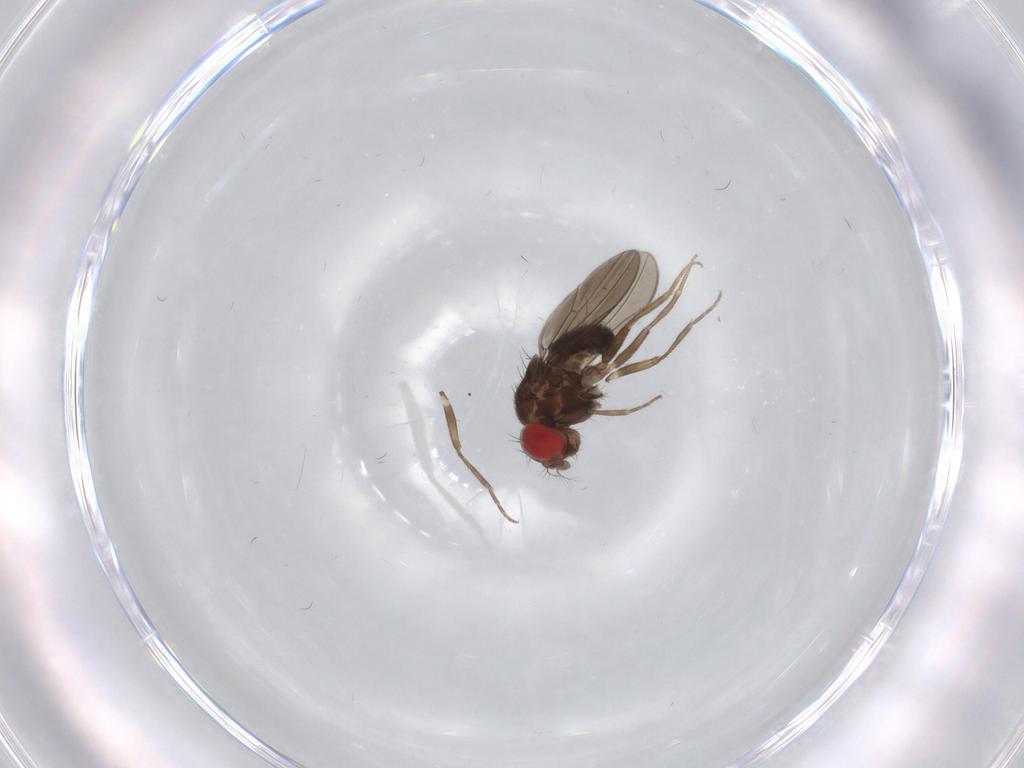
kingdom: Animalia
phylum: Arthropoda
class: Insecta
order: Diptera
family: Drosophilidae
